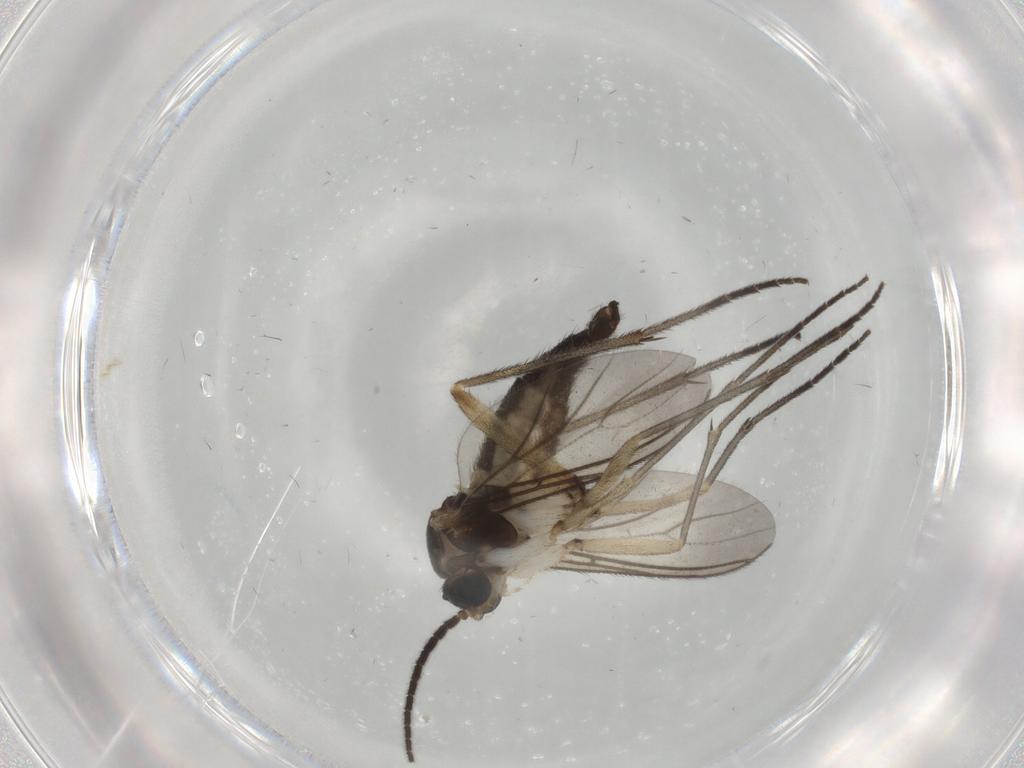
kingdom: Animalia
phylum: Arthropoda
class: Insecta
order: Diptera
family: Sciaridae
